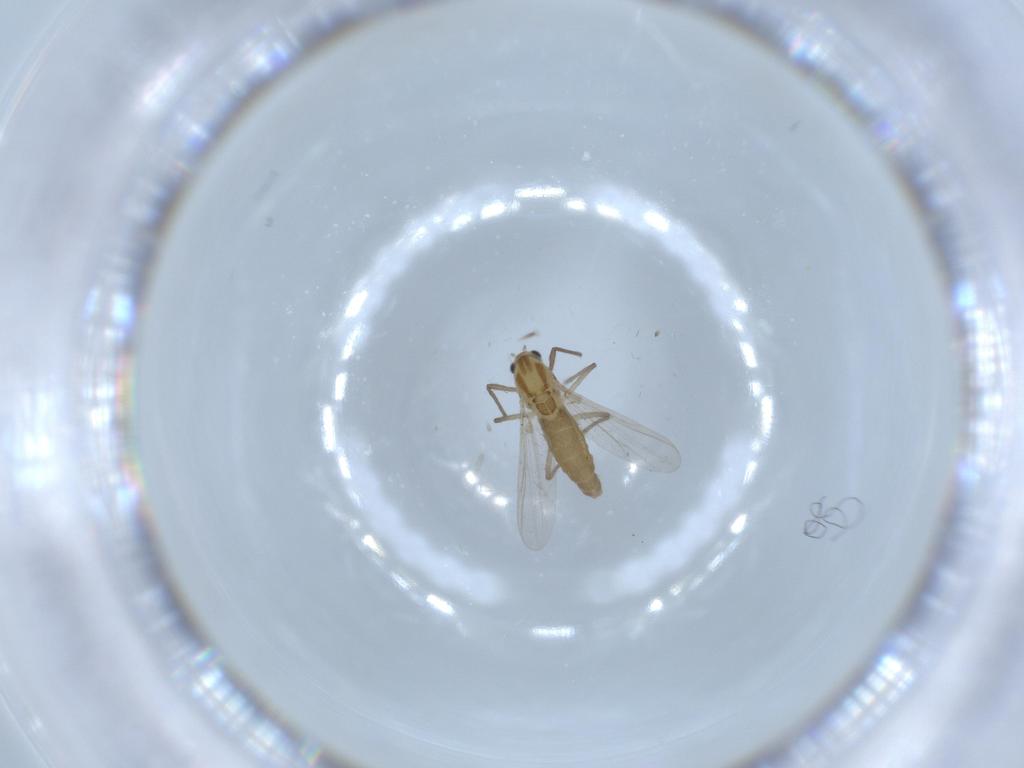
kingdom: Animalia
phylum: Arthropoda
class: Insecta
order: Diptera
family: Chironomidae
